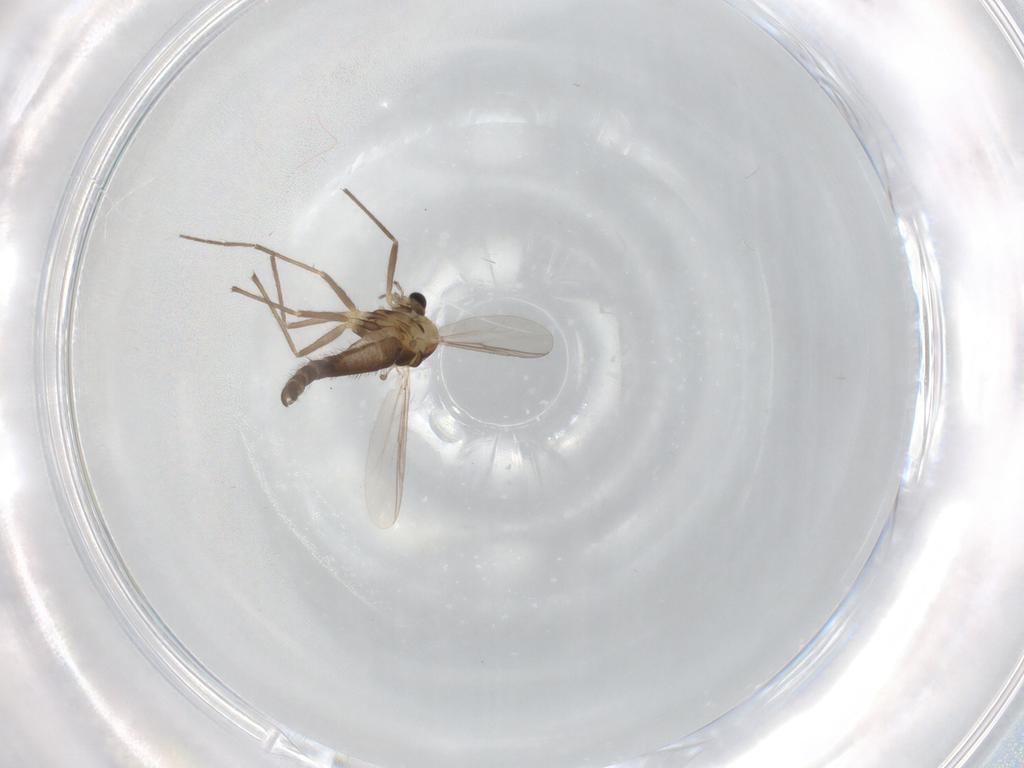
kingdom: Animalia
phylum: Arthropoda
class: Insecta
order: Diptera
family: Chironomidae
